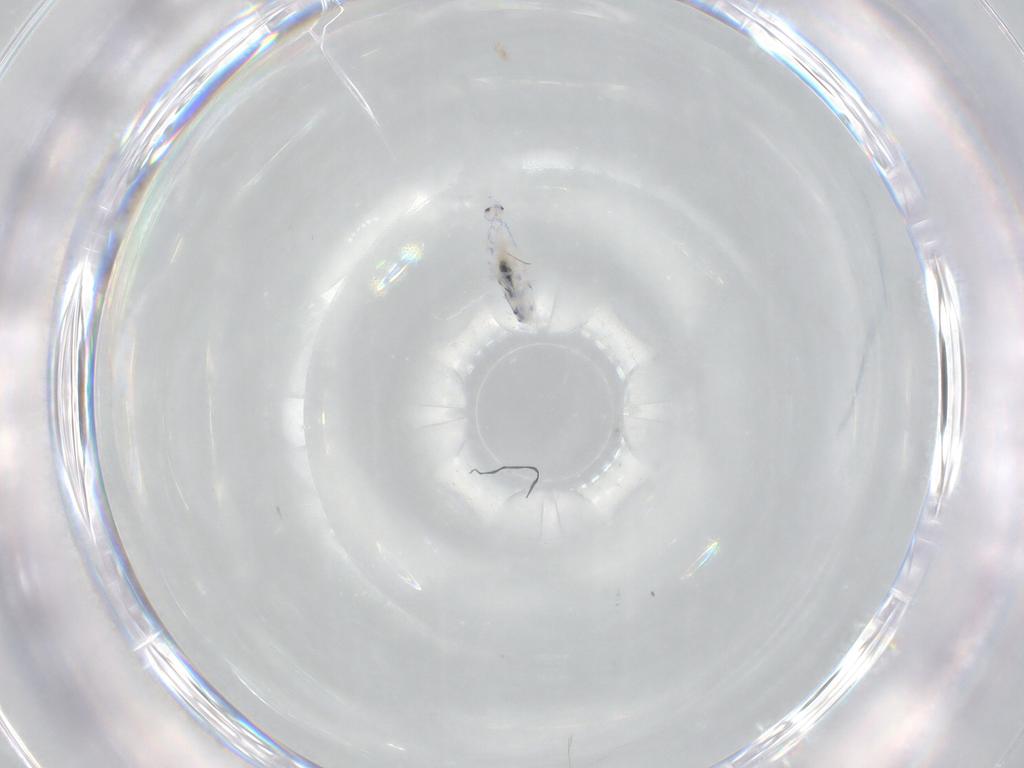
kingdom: Animalia
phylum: Arthropoda
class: Collembola
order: Entomobryomorpha
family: Entomobryidae
